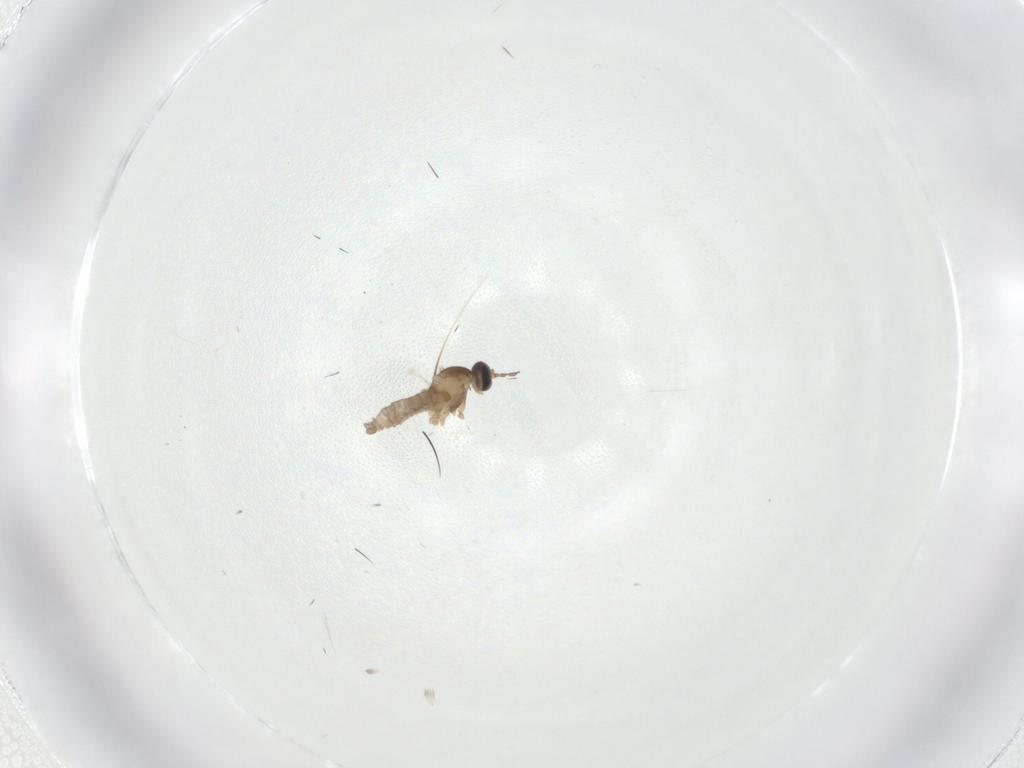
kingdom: Animalia
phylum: Arthropoda
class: Insecta
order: Diptera
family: Cecidomyiidae
